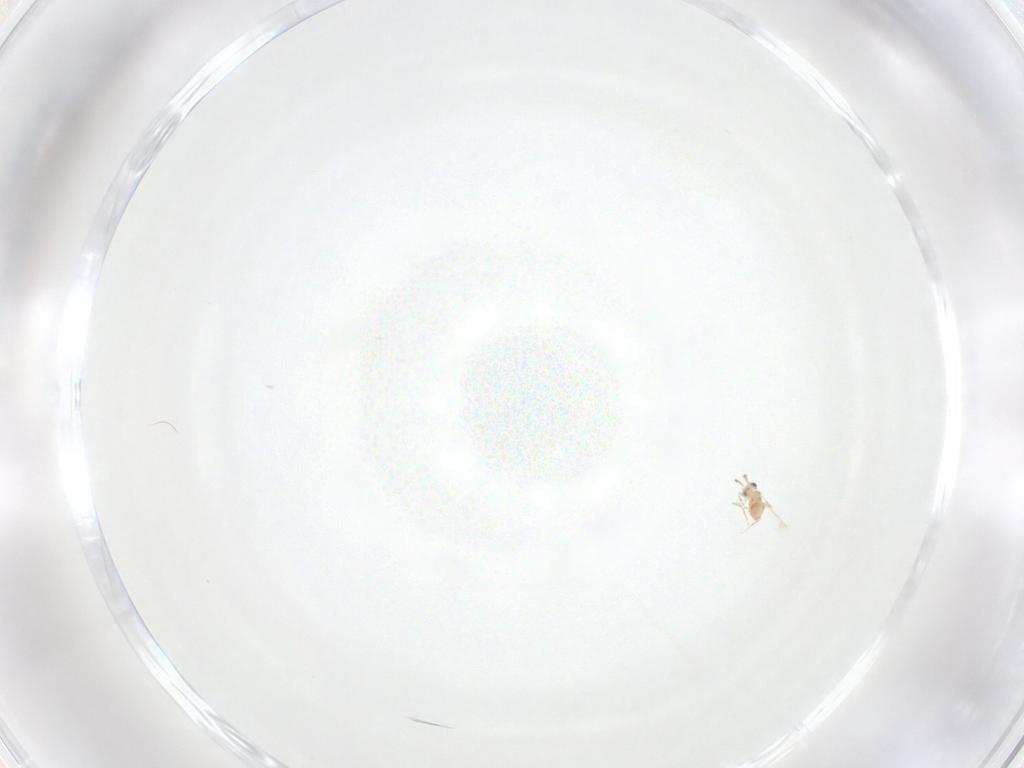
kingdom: Animalia
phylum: Arthropoda
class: Insecta
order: Hymenoptera
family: Mymaridae
